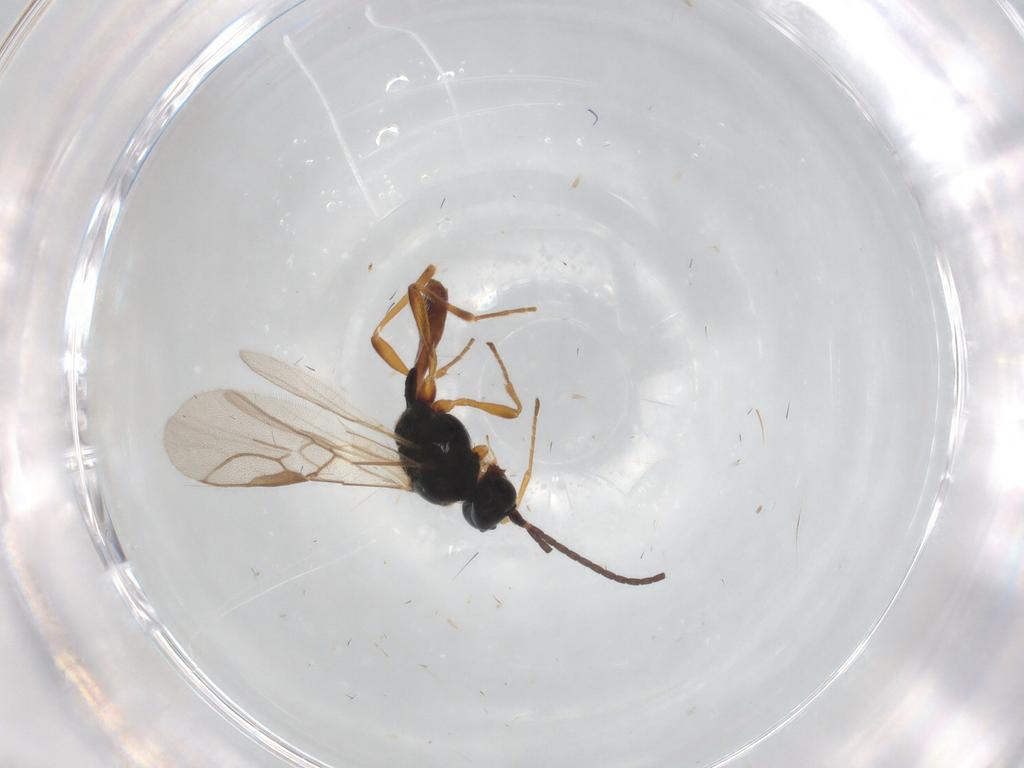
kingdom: Animalia
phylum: Arthropoda
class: Insecta
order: Hymenoptera
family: Braconidae
